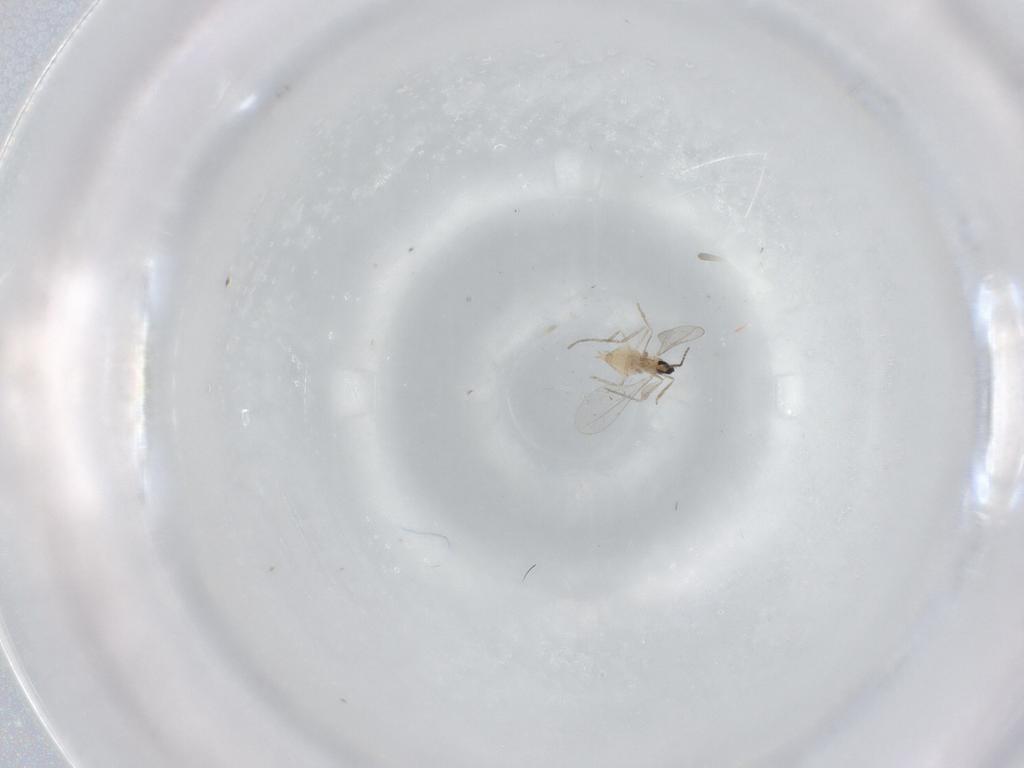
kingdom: Animalia
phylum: Arthropoda
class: Insecta
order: Diptera
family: Cecidomyiidae
